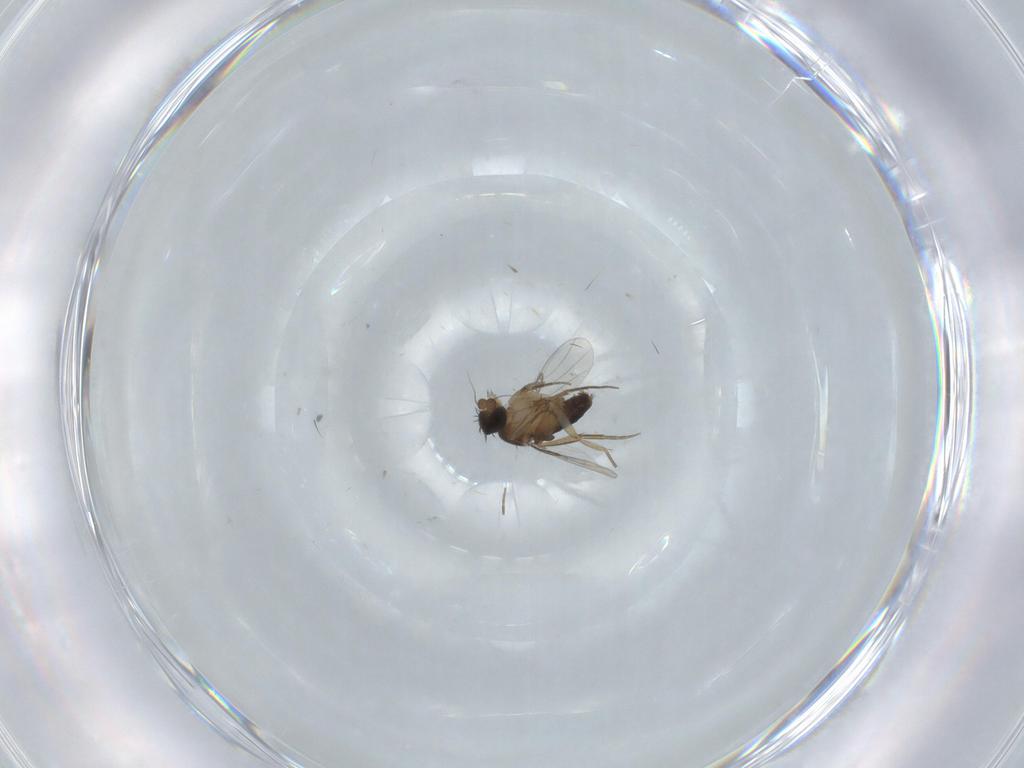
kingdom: Animalia
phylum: Arthropoda
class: Insecta
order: Diptera
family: Therevidae
